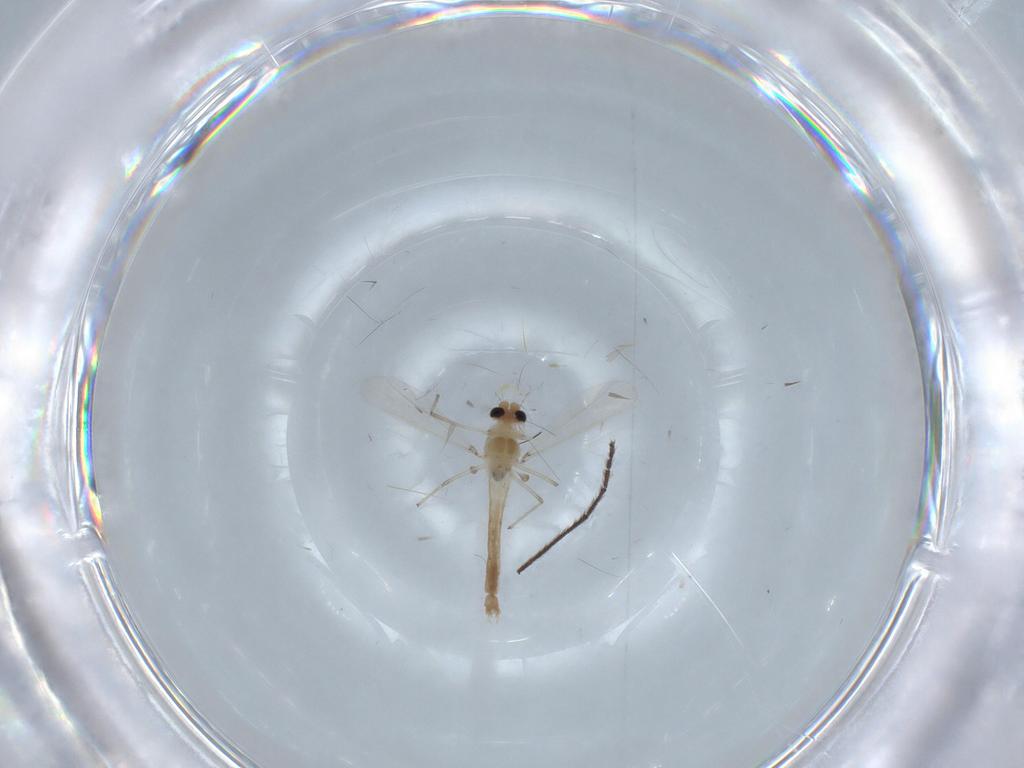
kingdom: Animalia
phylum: Arthropoda
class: Insecta
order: Diptera
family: Chironomidae
